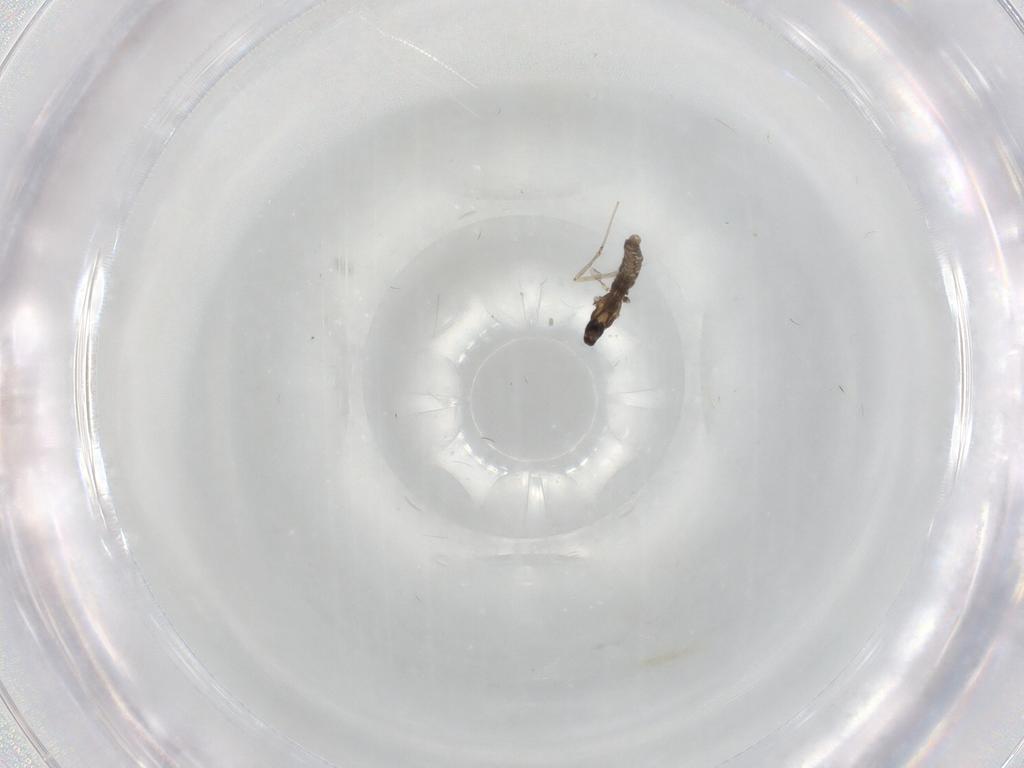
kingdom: Animalia
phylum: Arthropoda
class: Insecta
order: Diptera
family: Cecidomyiidae
